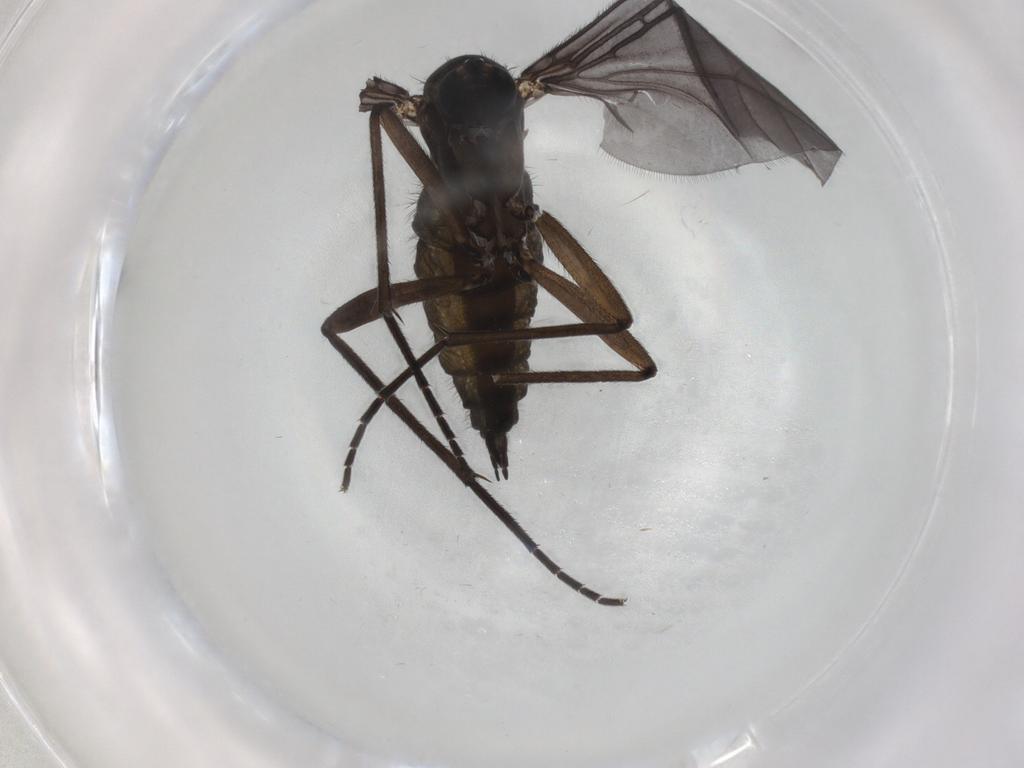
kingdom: Animalia
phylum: Arthropoda
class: Insecta
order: Diptera
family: Sciaridae
